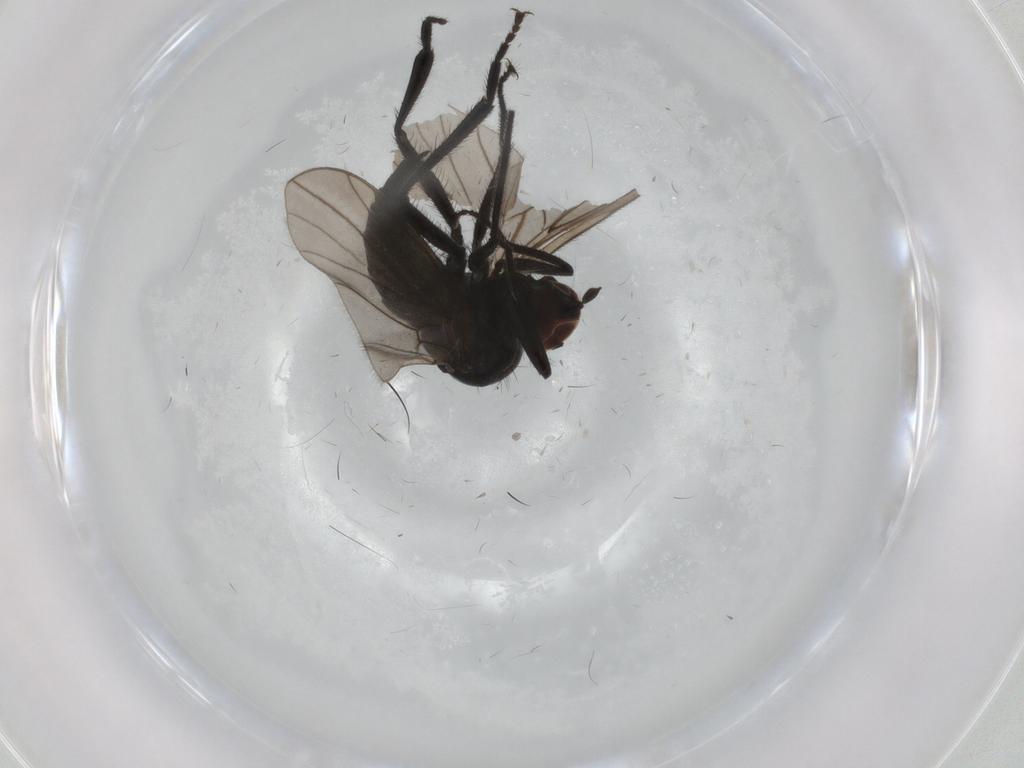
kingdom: Animalia
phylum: Arthropoda
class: Insecta
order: Diptera
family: Hybotidae
